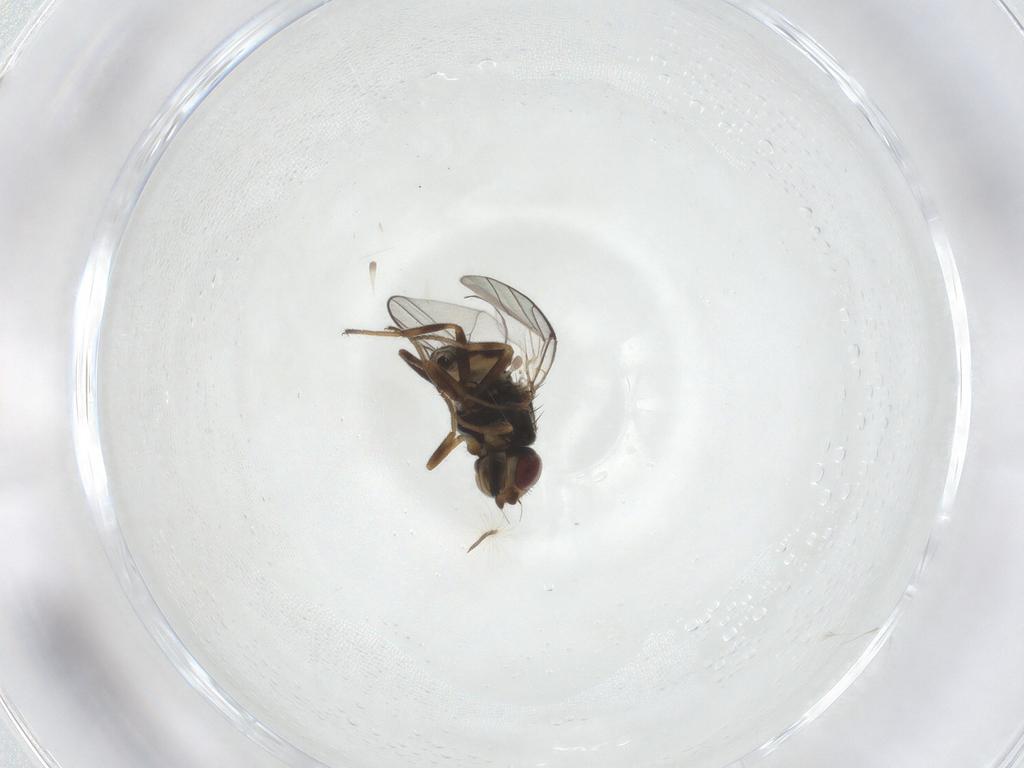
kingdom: Animalia
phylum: Arthropoda
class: Insecta
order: Diptera
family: Chloropidae
